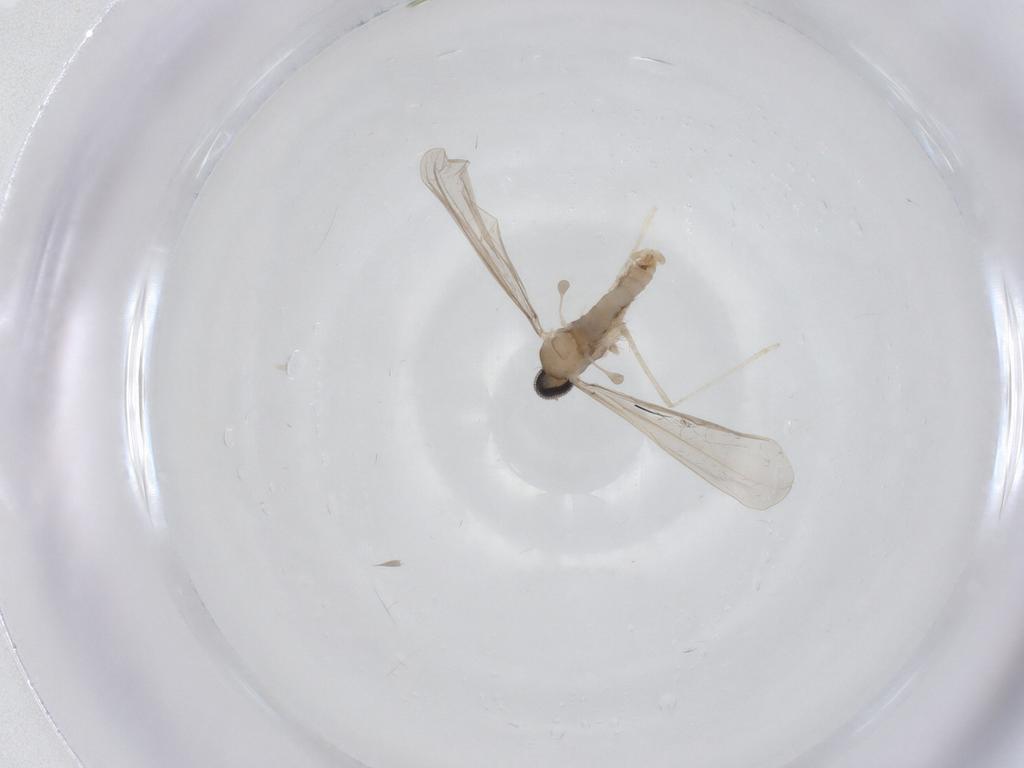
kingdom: Animalia
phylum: Arthropoda
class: Insecta
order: Diptera
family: Cecidomyiidae
